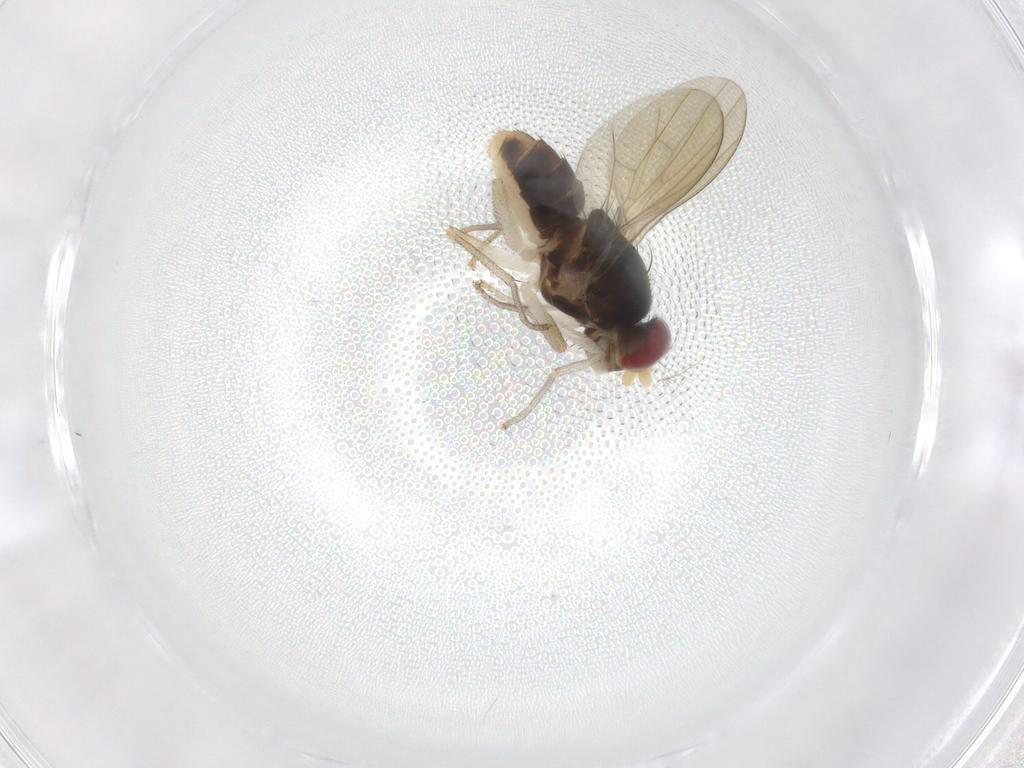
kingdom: Animalia
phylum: Arthropoda
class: Insecta
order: Diptera
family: Lauxaniidae
